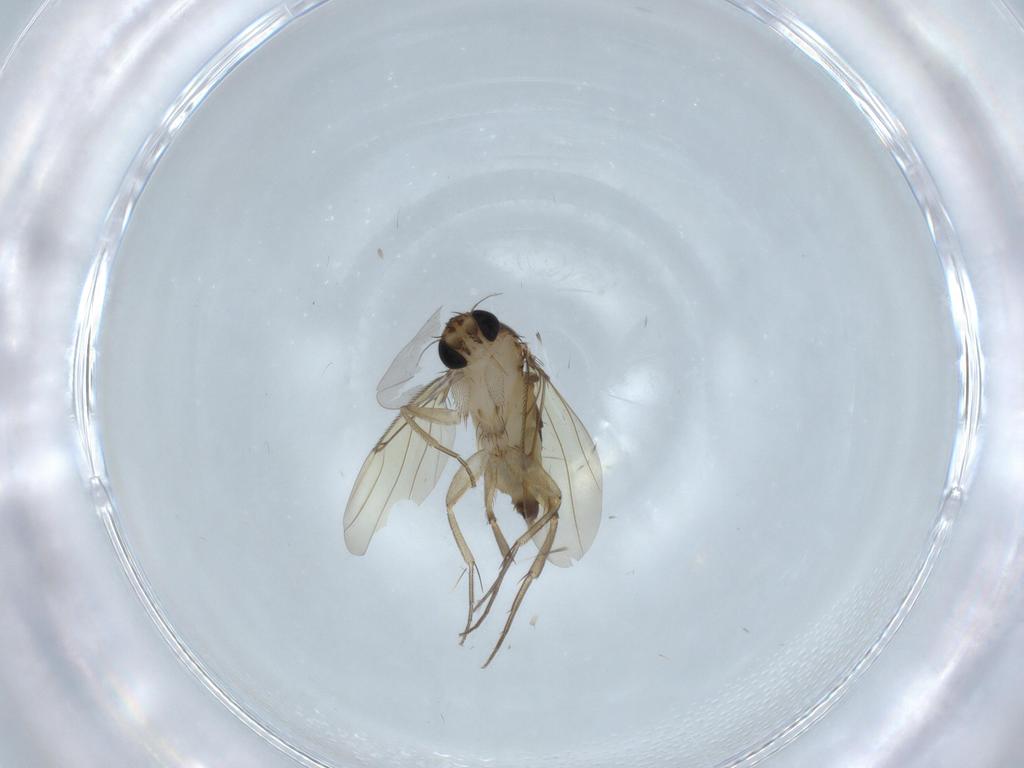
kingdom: Animalia
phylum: Arthropoda
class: Insecta
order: Diptera
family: Phoridae
